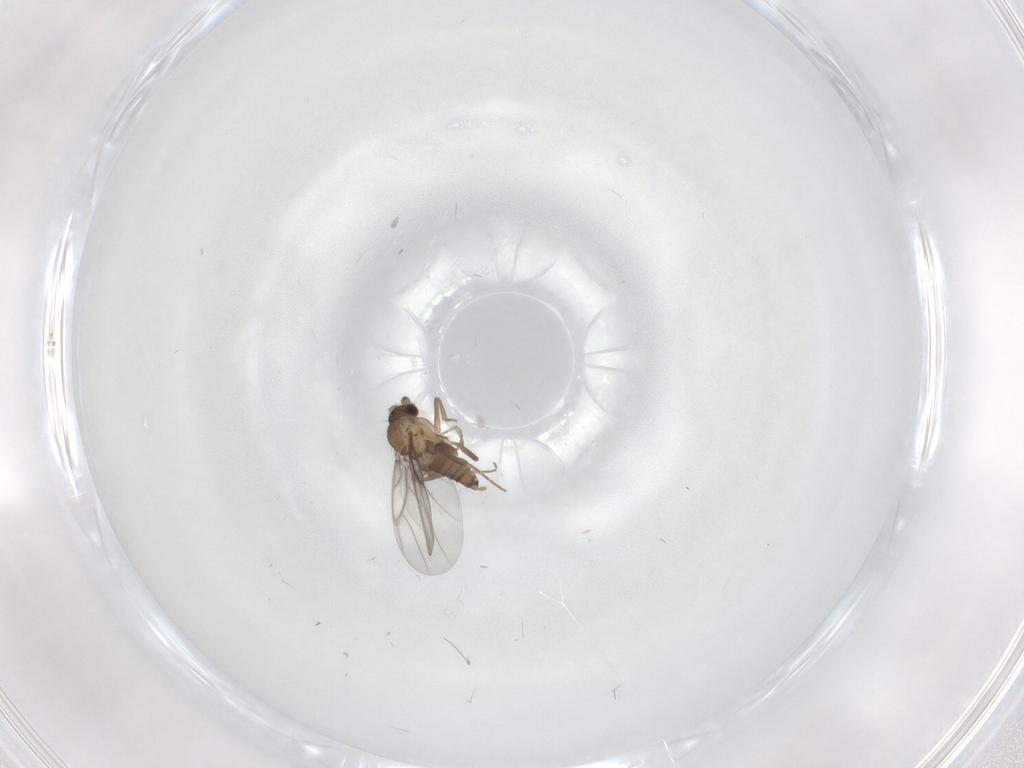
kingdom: Animalia
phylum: Arthropoda
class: Insecta
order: Diptera
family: Psychodidae
